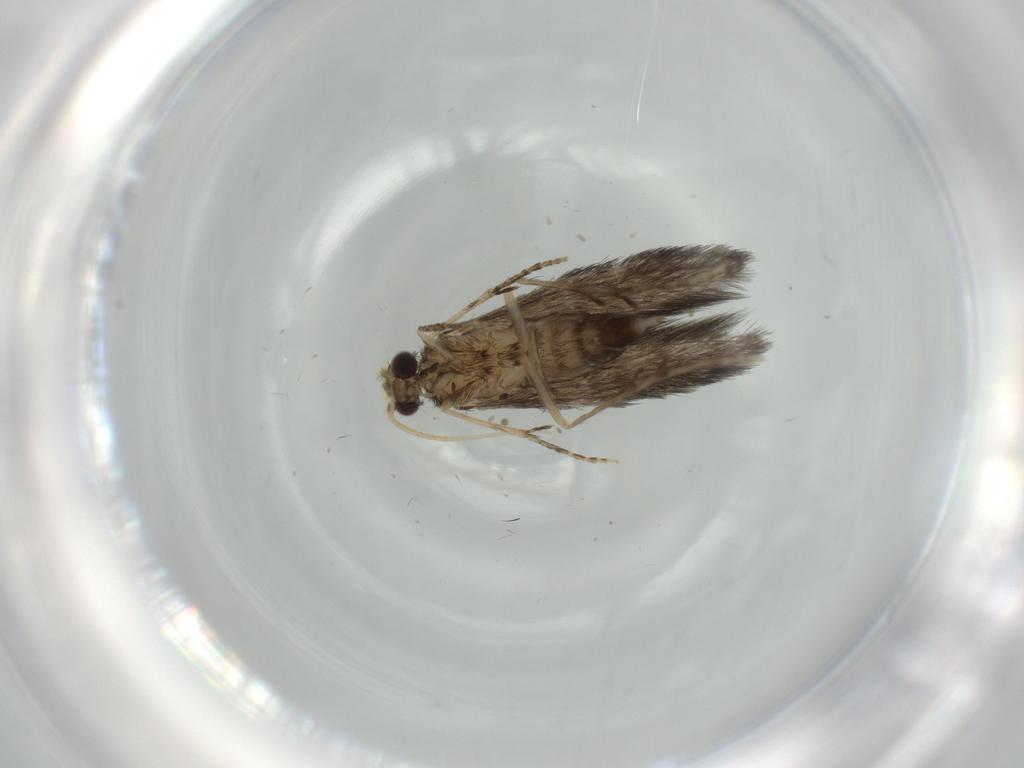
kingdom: Animalia
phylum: Arthropoda
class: Insecta
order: Trichoptera
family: Hydroptilidae
